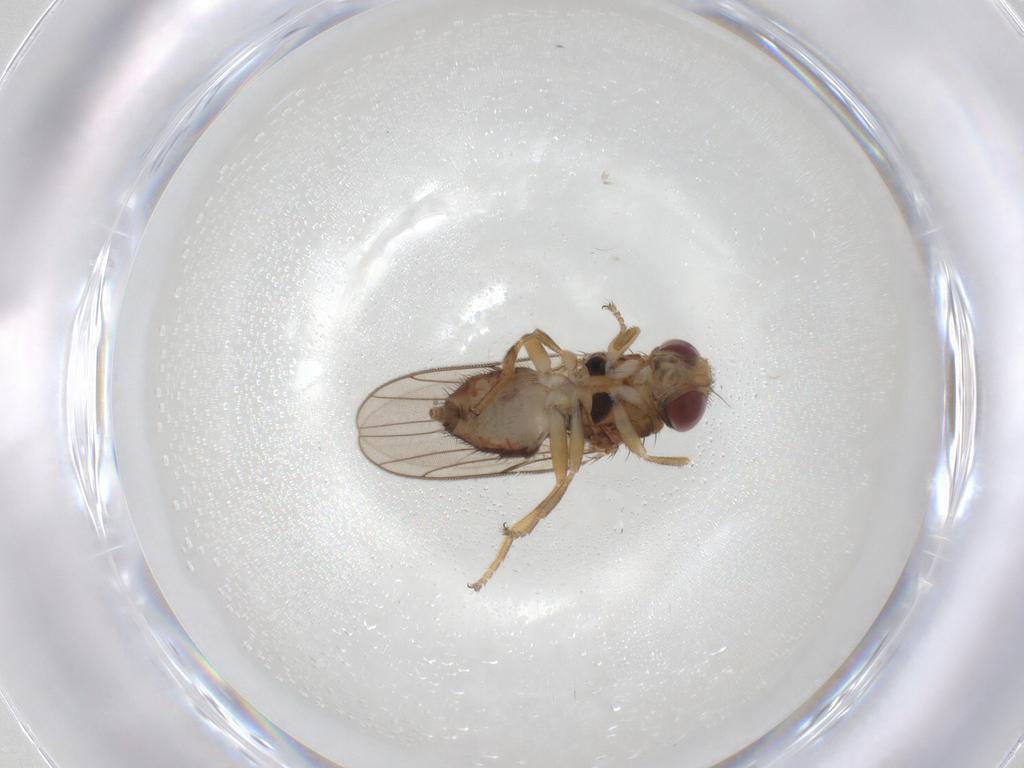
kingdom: Animalia
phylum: Arthropoda
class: Insecta
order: Diptera
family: Chloropidae
